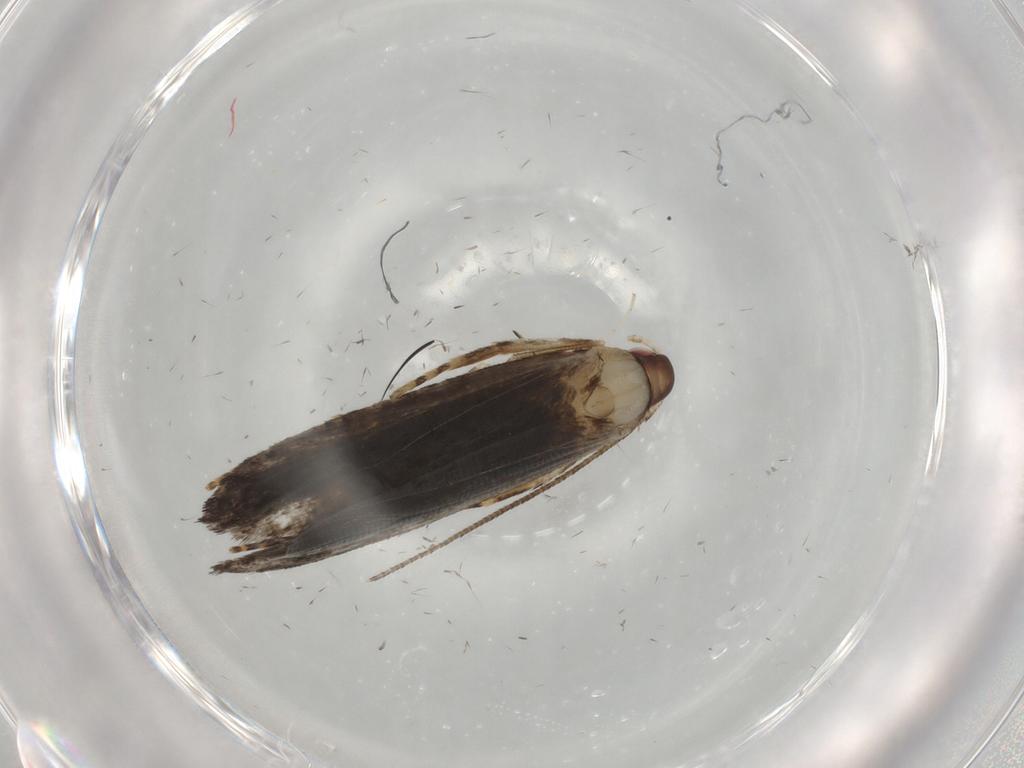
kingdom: Animalia
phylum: Arthropoda
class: Insecta
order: Lepidoptera
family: Gelechiidae
